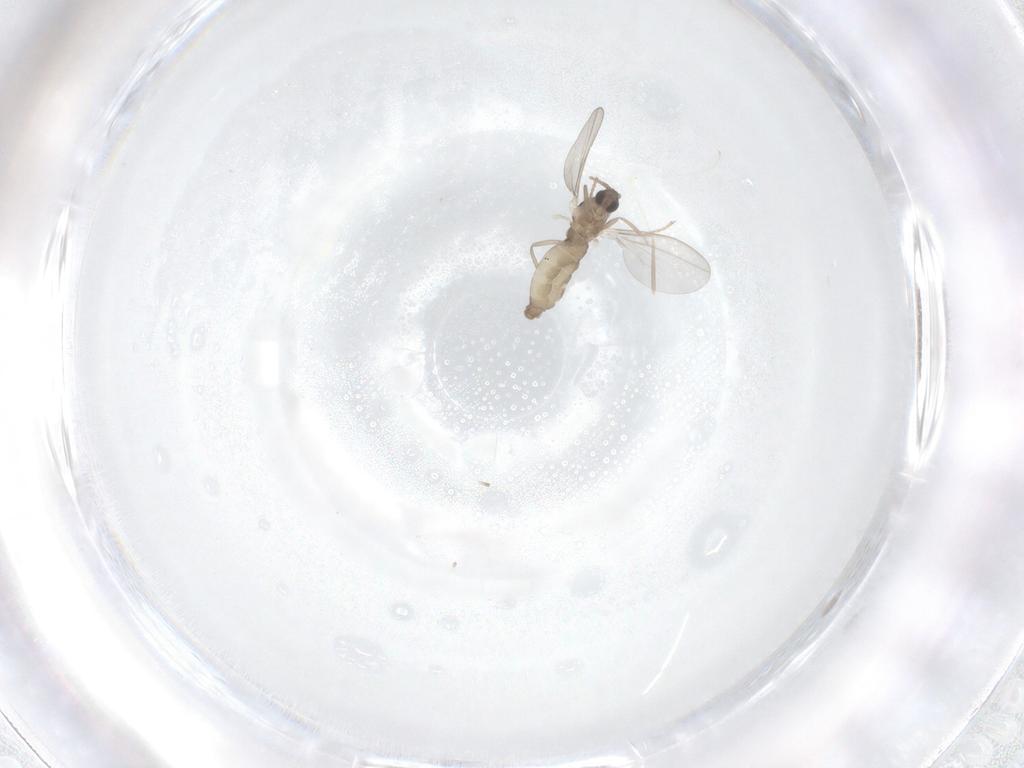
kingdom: Animalia
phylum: Arthropoda
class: Insecta
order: Diptera
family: Cecidomyiidae
